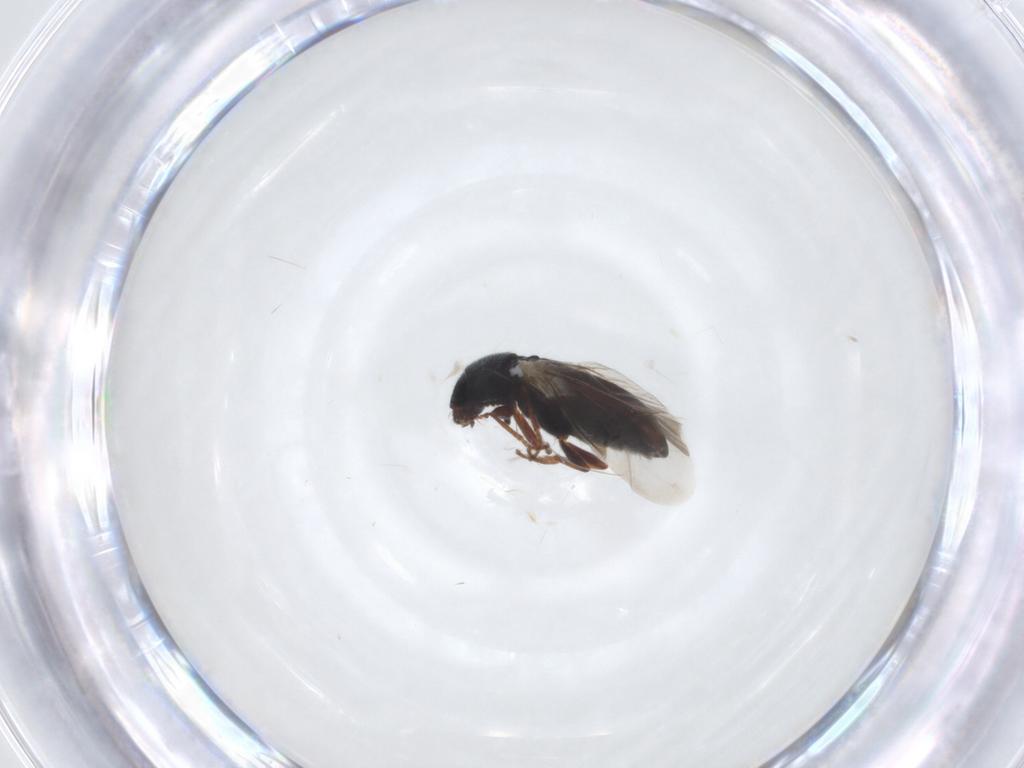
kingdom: Animalia
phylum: Arthropoda
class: Insecta
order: Coleoptera
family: Melyridae
